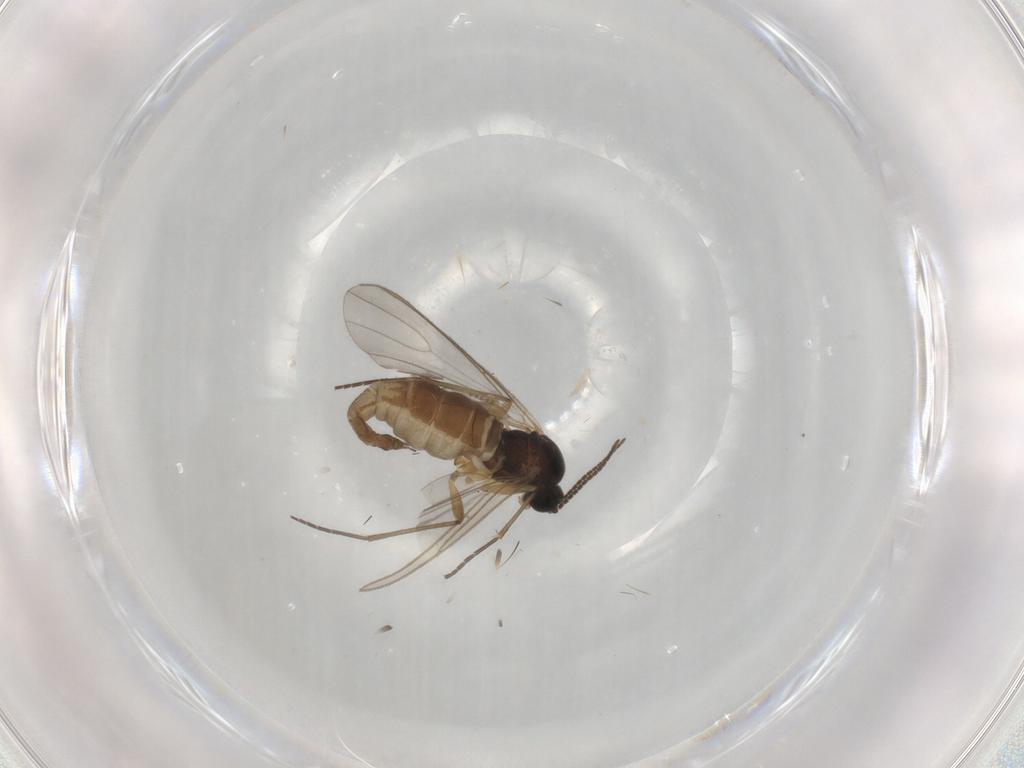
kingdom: Animalia
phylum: Arthropoda
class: Insecta
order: Diptera
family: Sciaridae
